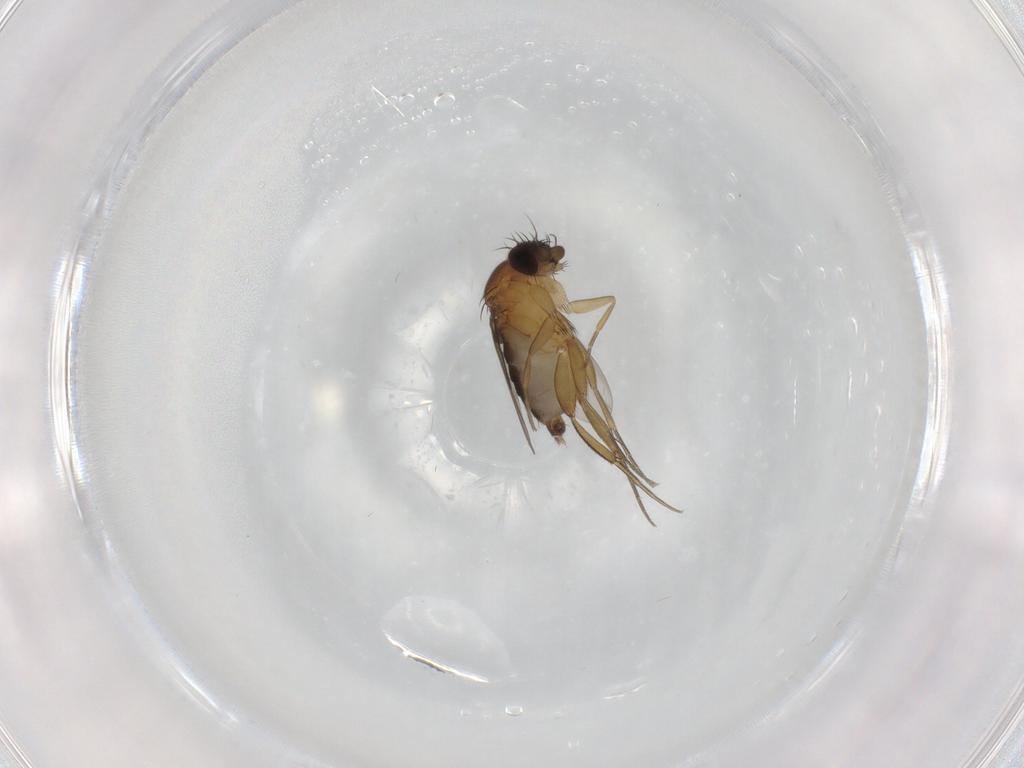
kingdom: Animalia
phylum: Arthropoda
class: Insecta
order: Diptera
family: Phoridae
